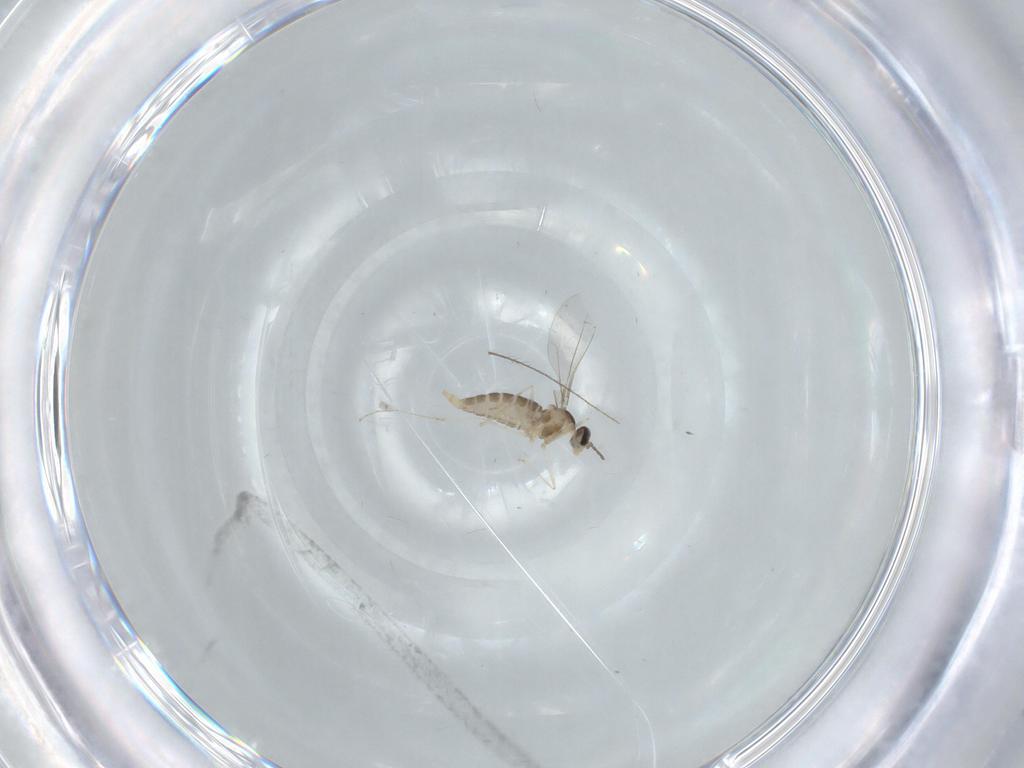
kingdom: Animalia
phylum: Arthropoda
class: Insecta
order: Diptera
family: Cecidomyiidae
